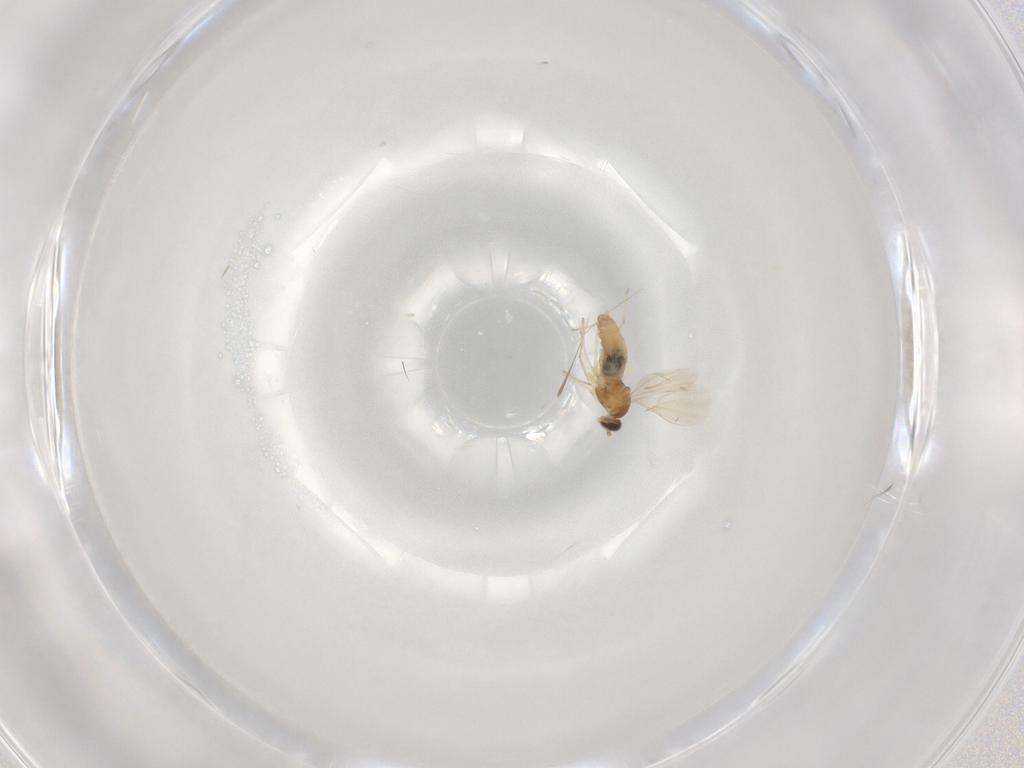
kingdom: Animalia
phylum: Arthropoda
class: Insecta
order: Diptera
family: Cecidomyiidae
